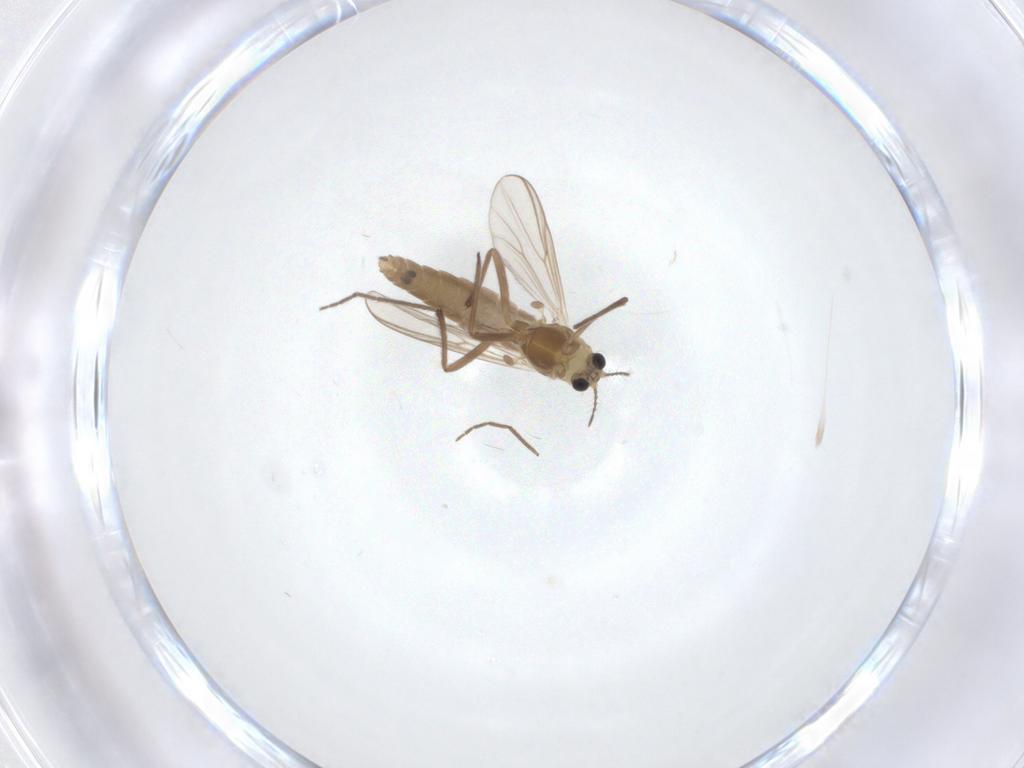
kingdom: Animalia
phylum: Arthropoda
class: Insecta
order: Diptera
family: Chironomidae
